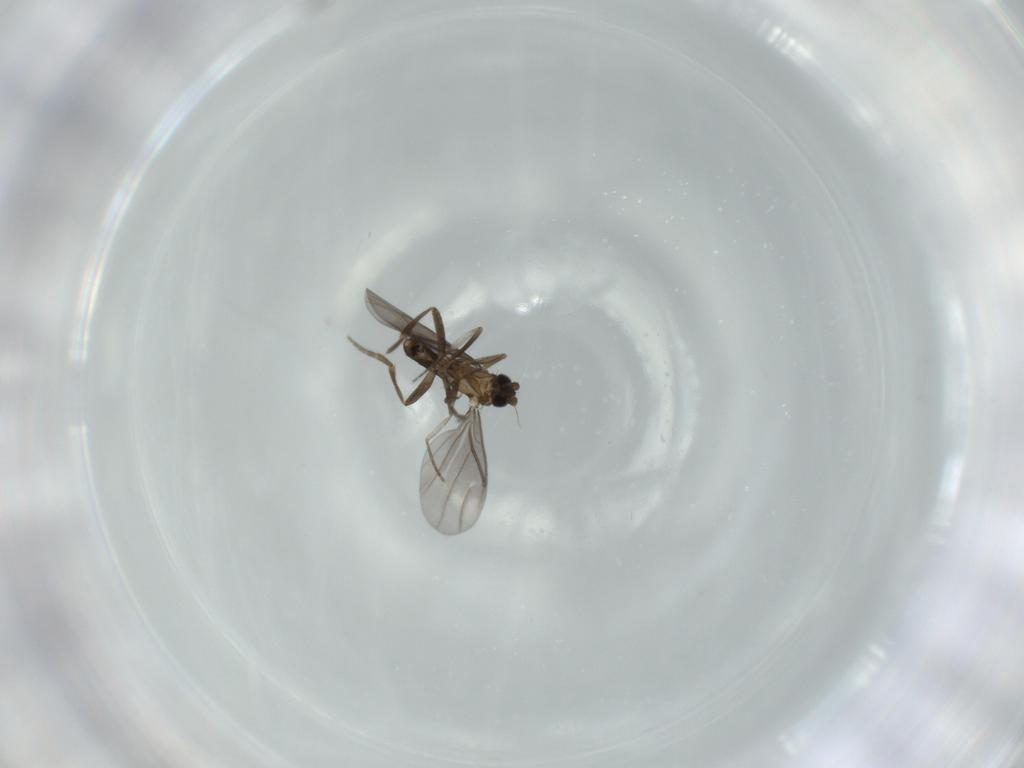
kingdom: Animalia
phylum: Arthropoda
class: Insecta
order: Diptera
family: Phoridae
